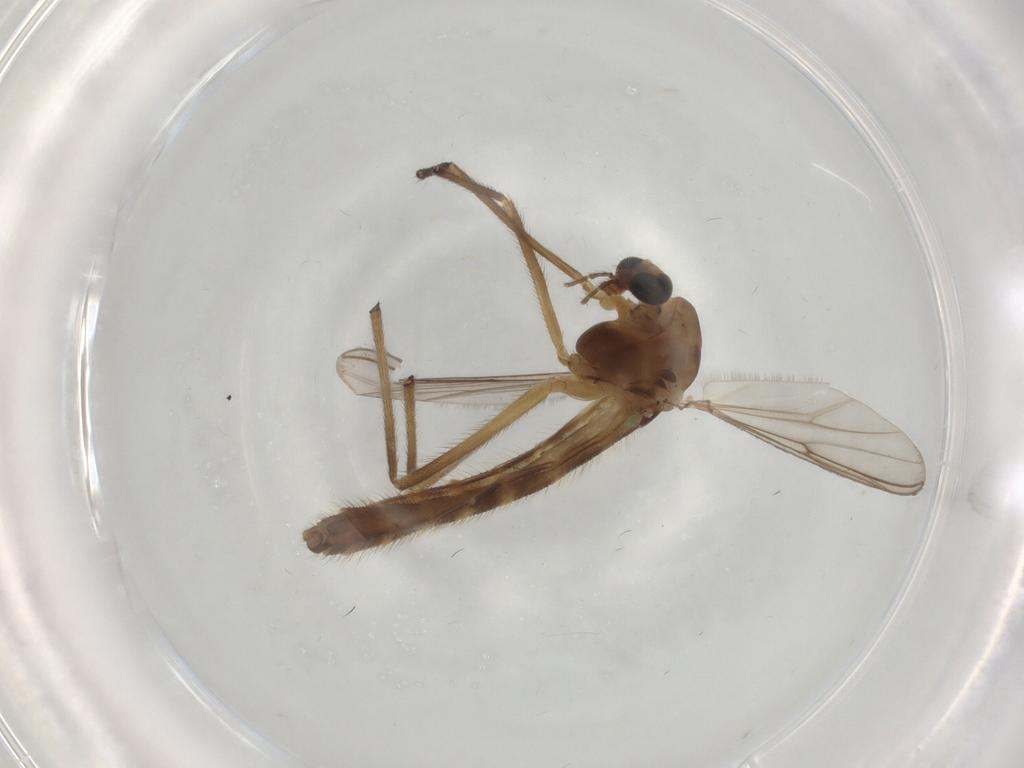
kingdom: Animalia
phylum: Arthropoda
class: Insecta
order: Diptera
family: Chironomidae
